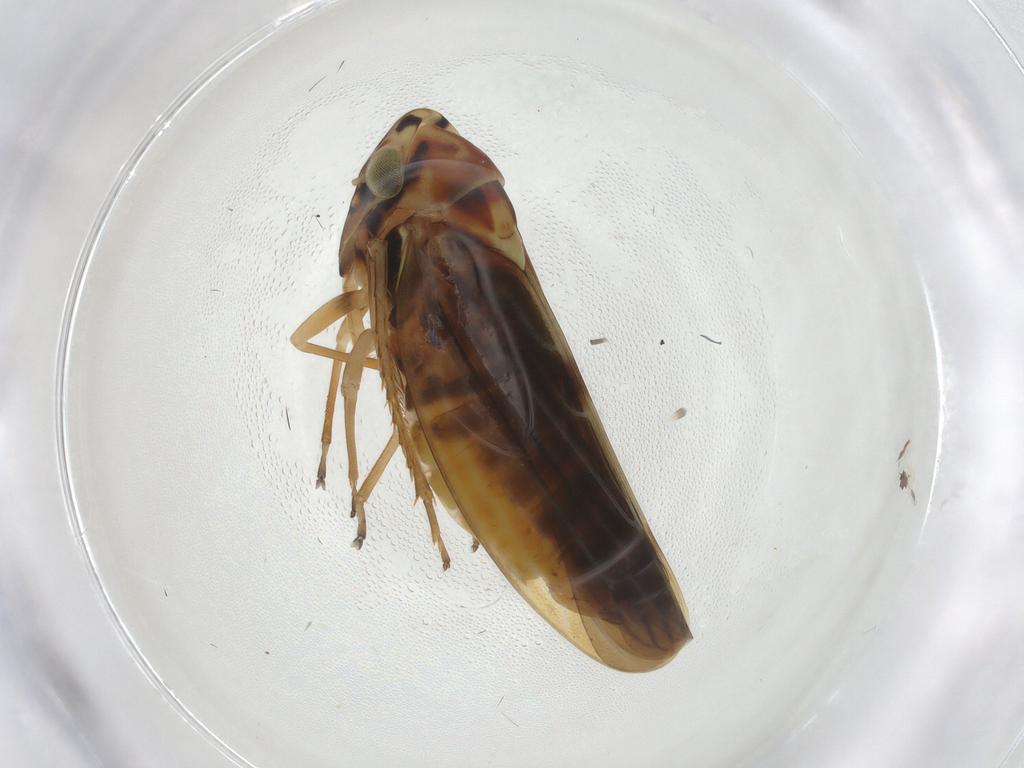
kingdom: Animalia
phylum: Arthropoda
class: Insecta
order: Hemiptera
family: Cicadellidae
